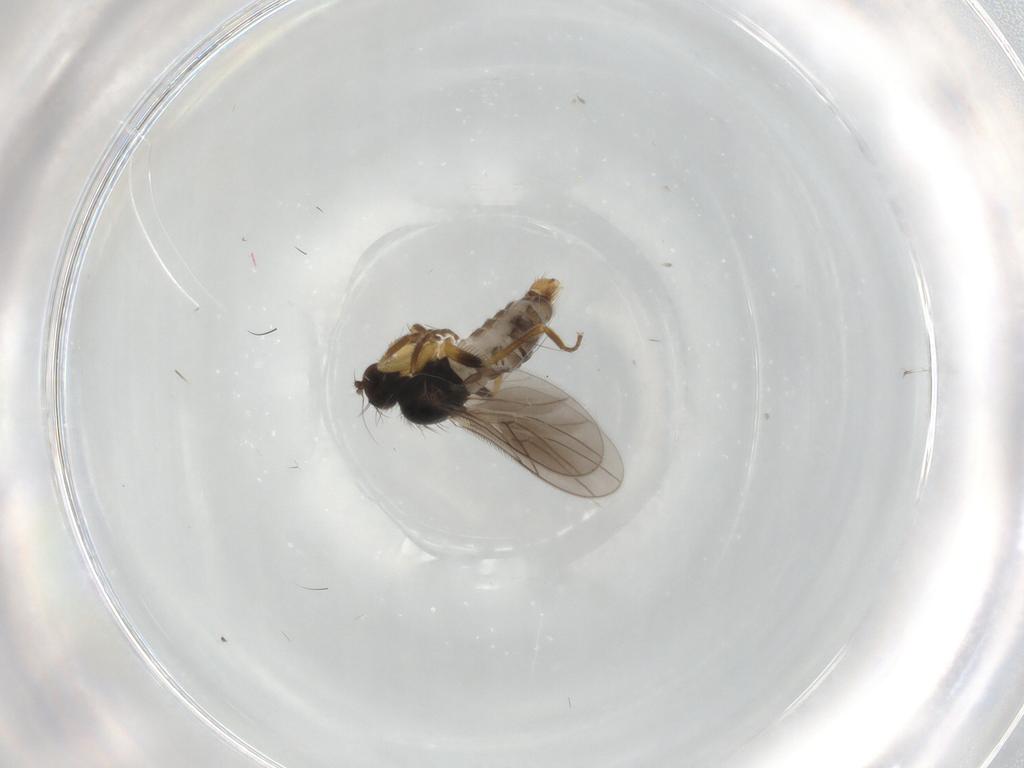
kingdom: Animalia
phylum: Arthropoda
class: Insecta
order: Diptera
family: Hybotidae
